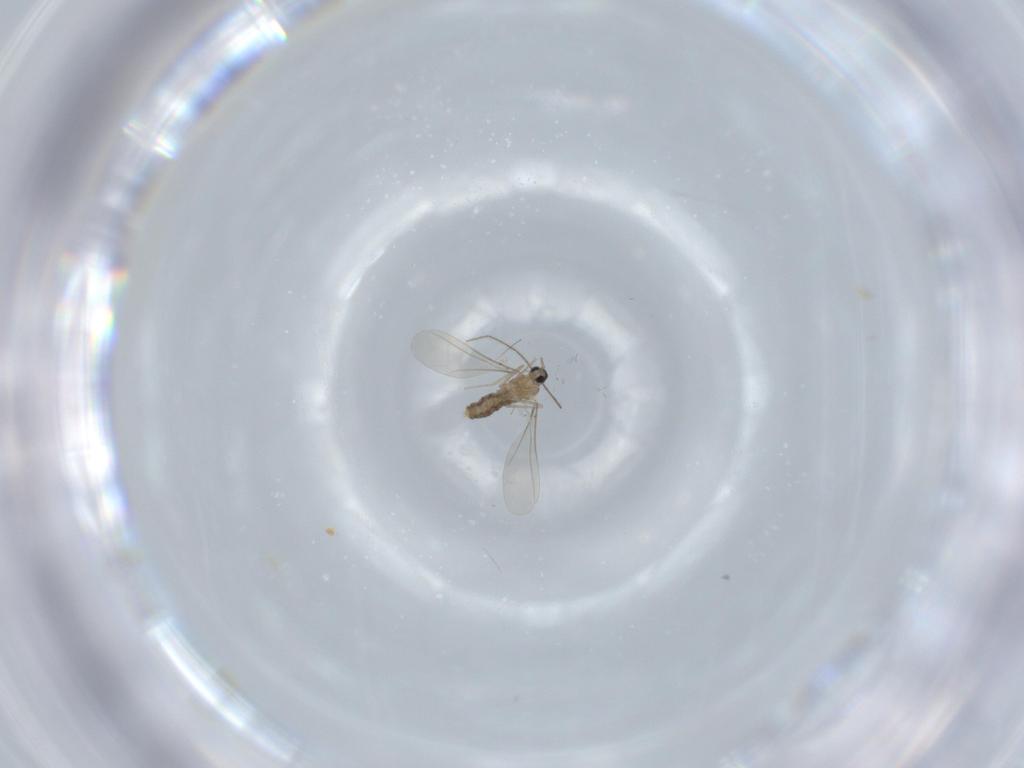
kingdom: Animalia
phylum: Arthropoda
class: Insecta
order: Diptera
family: Cecidomyiidae
